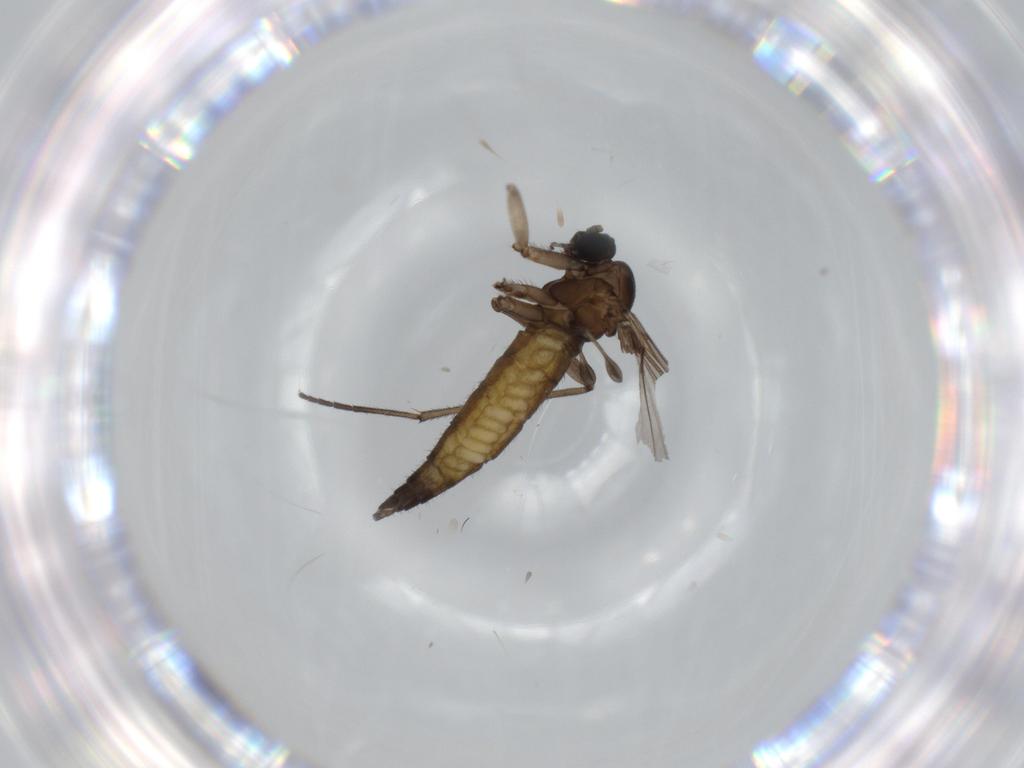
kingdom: Animalia
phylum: Arthropoda
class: Insecta
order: Diptera
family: Sciaridae
